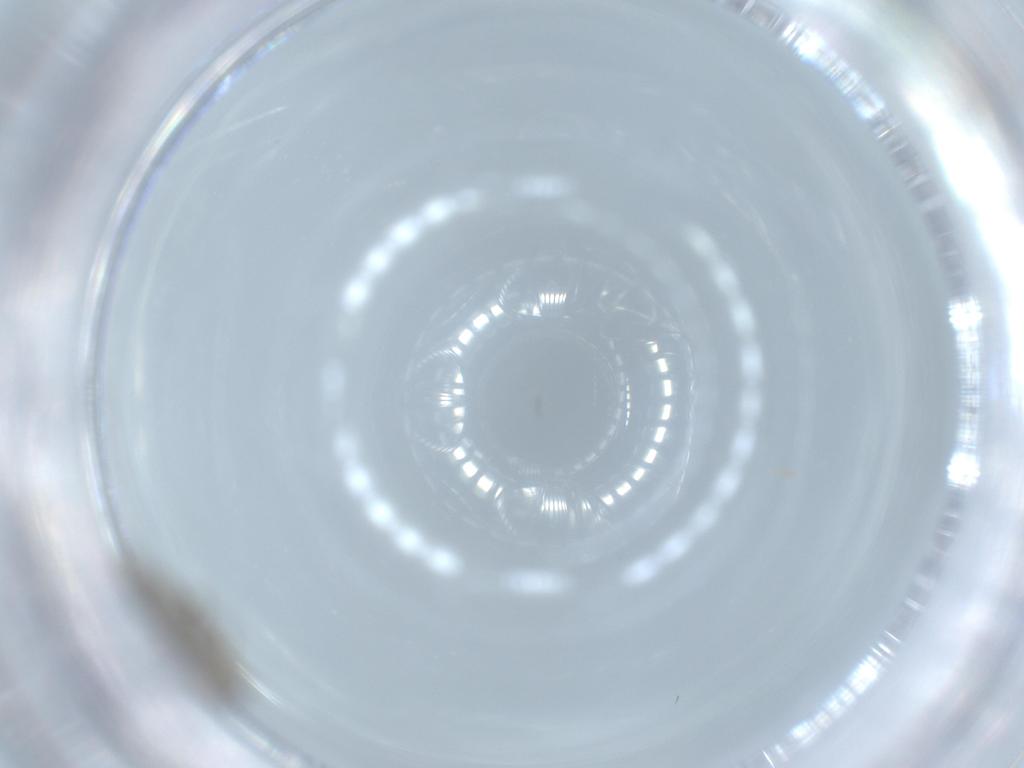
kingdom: Animalia
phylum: Arthropoda
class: Insecta
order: Diptera
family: Chironomidae
